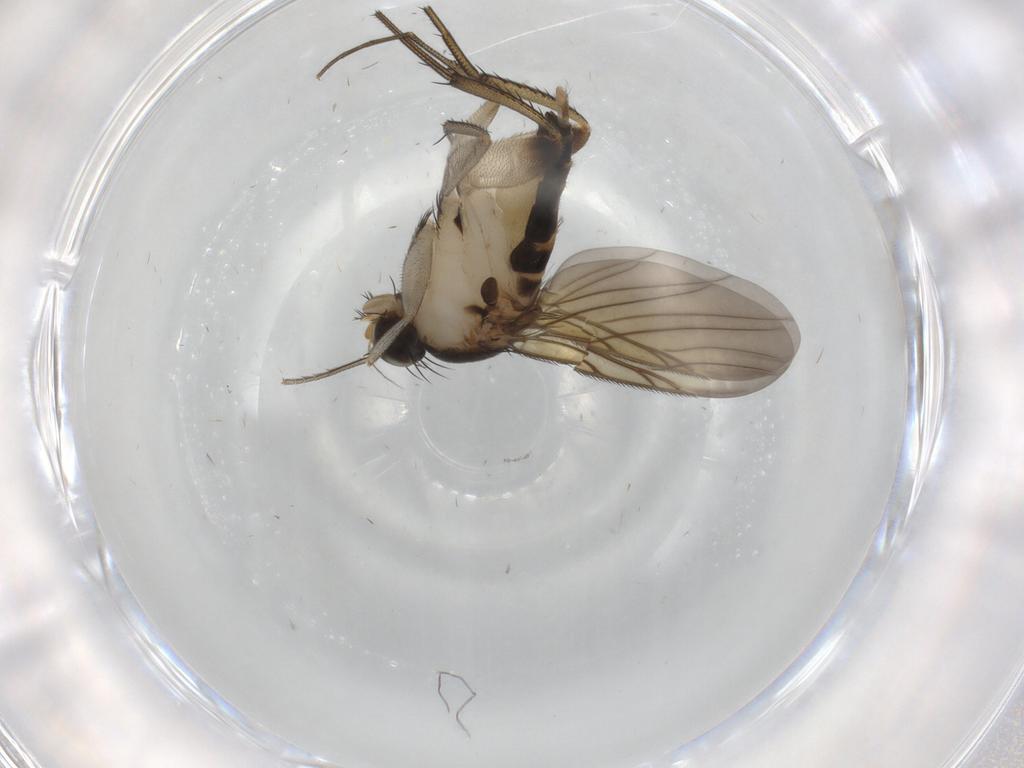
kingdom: Animalia
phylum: Arthropoda
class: Insecta
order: Diptera
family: Phoridae
